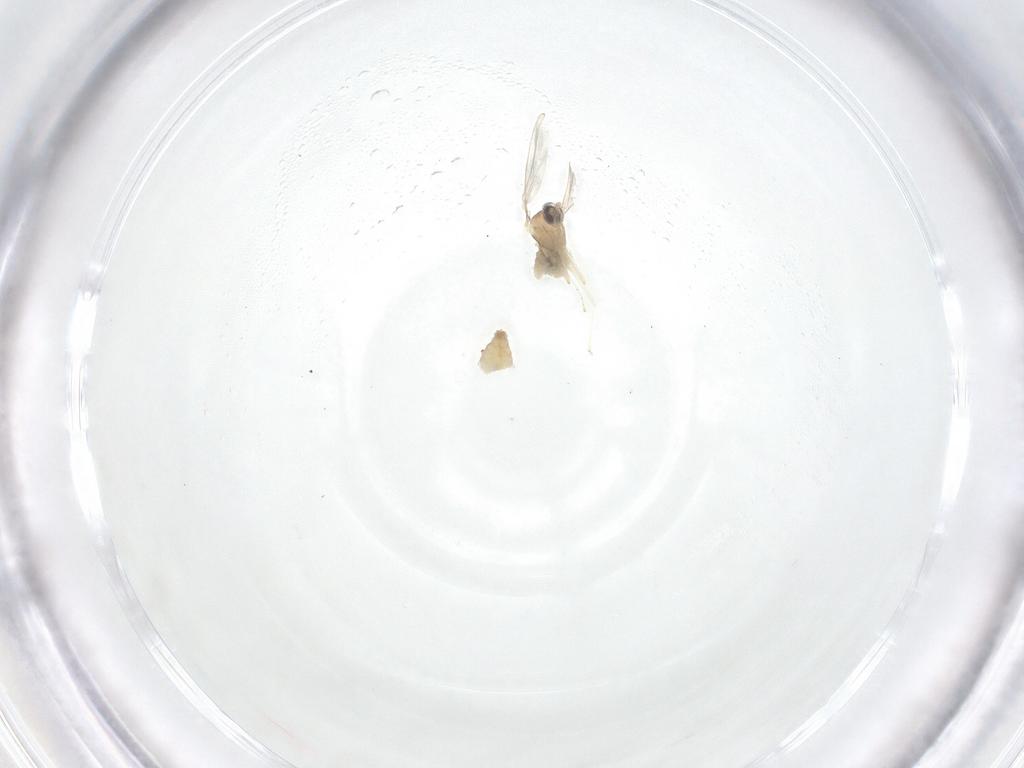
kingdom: Animalia
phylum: Arthropoda
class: Insecta
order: Diptera
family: Cecidomyiidae
